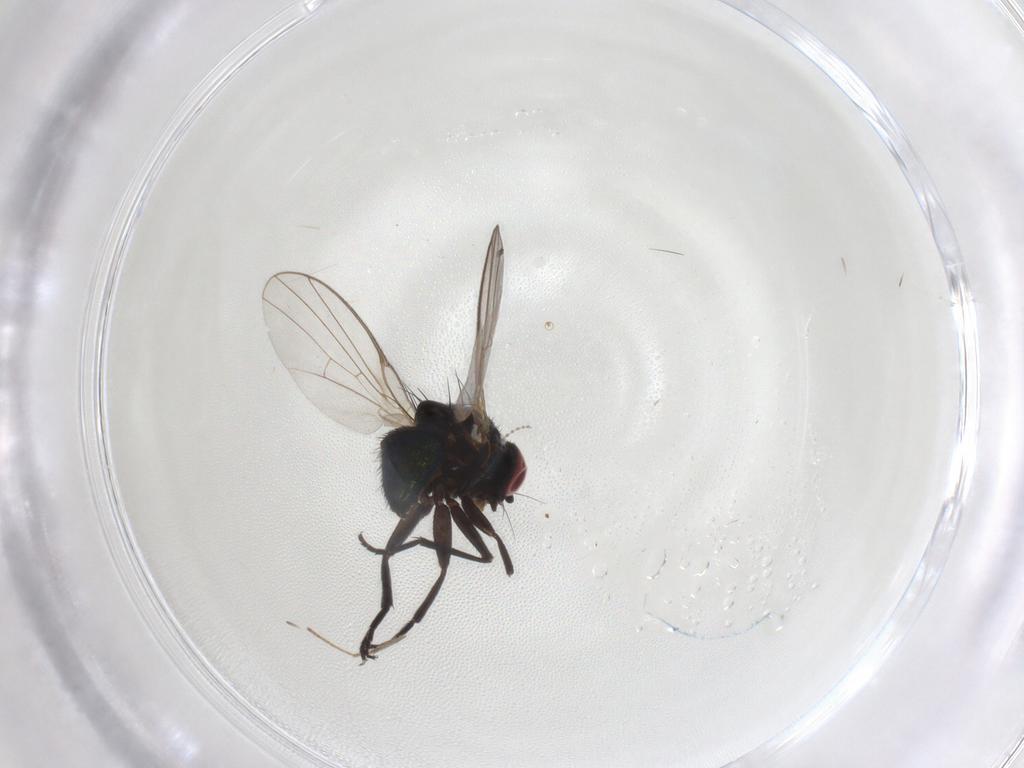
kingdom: Animalia
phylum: Arthropoda
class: Insecta
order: Diptera
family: Agromyzidae
